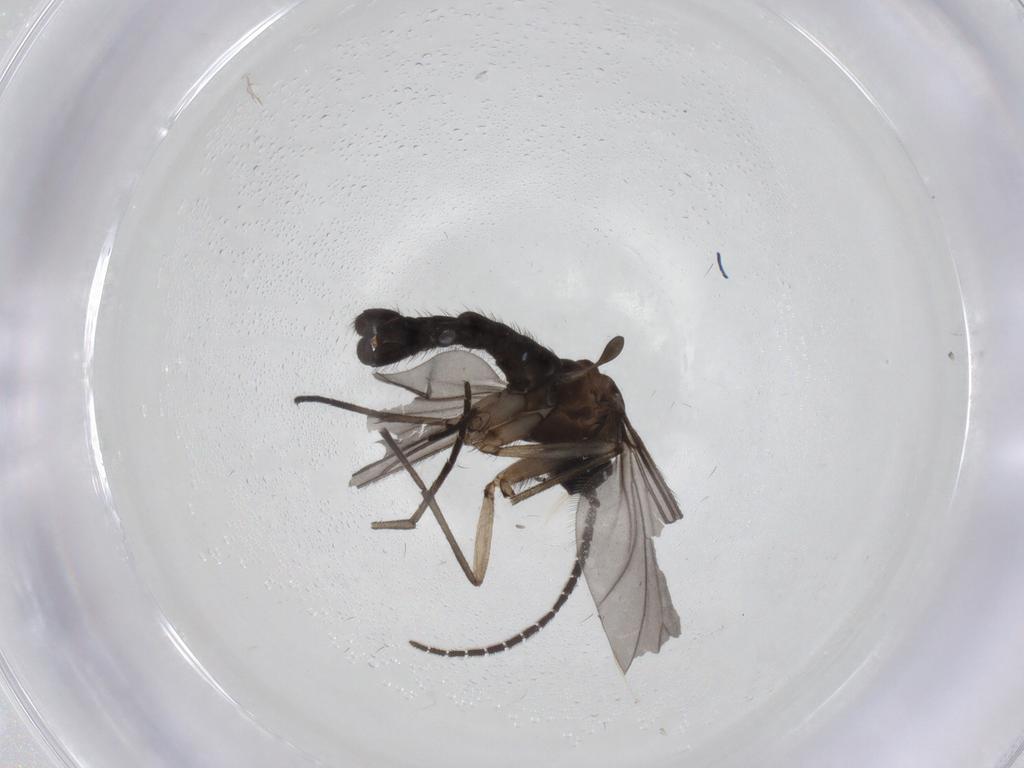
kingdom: Animalia
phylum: Arthropoda
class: Insecta
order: Diptera
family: Sciaridae
